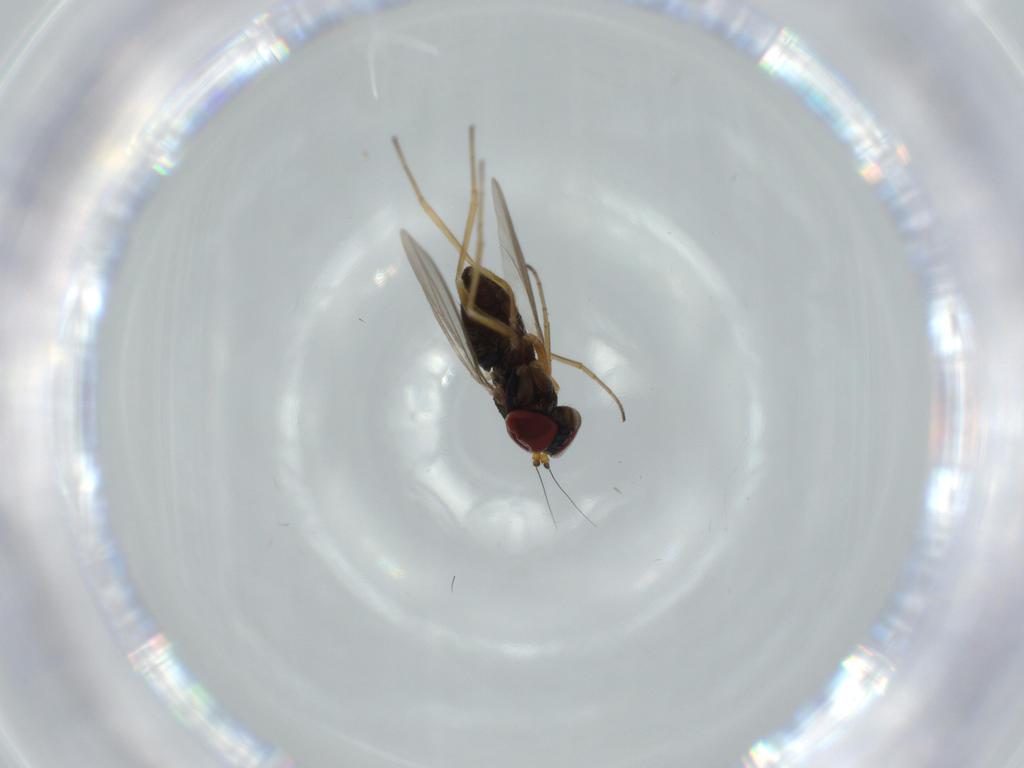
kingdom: Animalia
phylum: Arthropoda
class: Insecta
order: Diptera
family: Dolichopodidae
